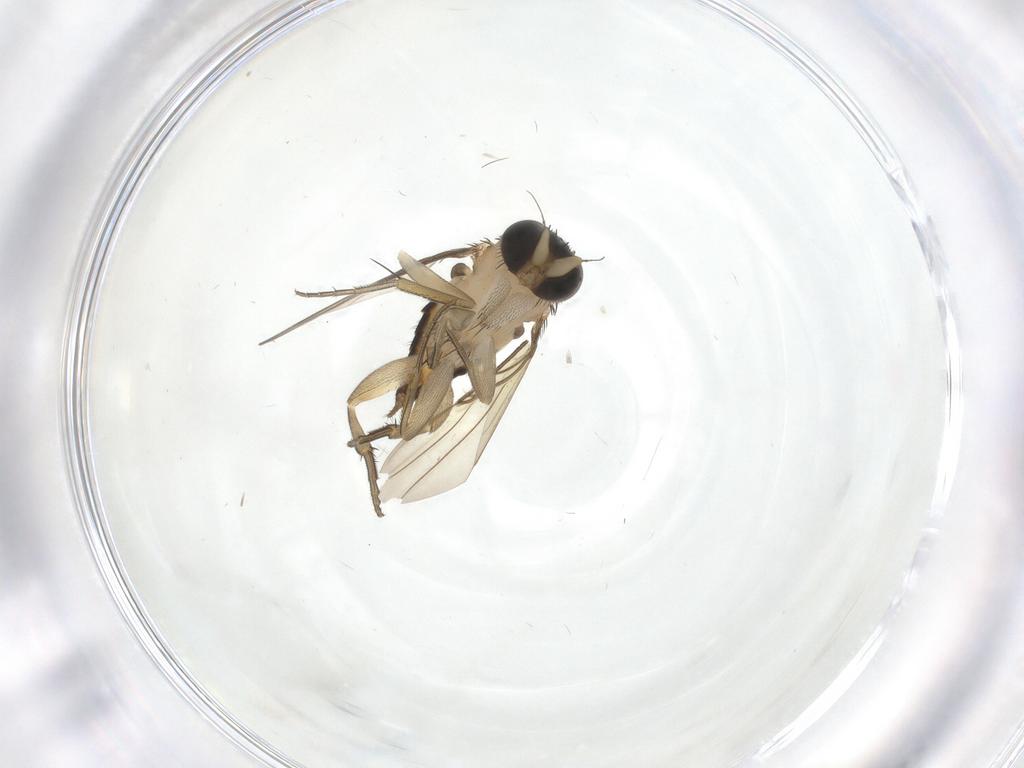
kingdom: Animalia
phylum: Arthropoda
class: Insecta
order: Diptera
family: Phoridae
